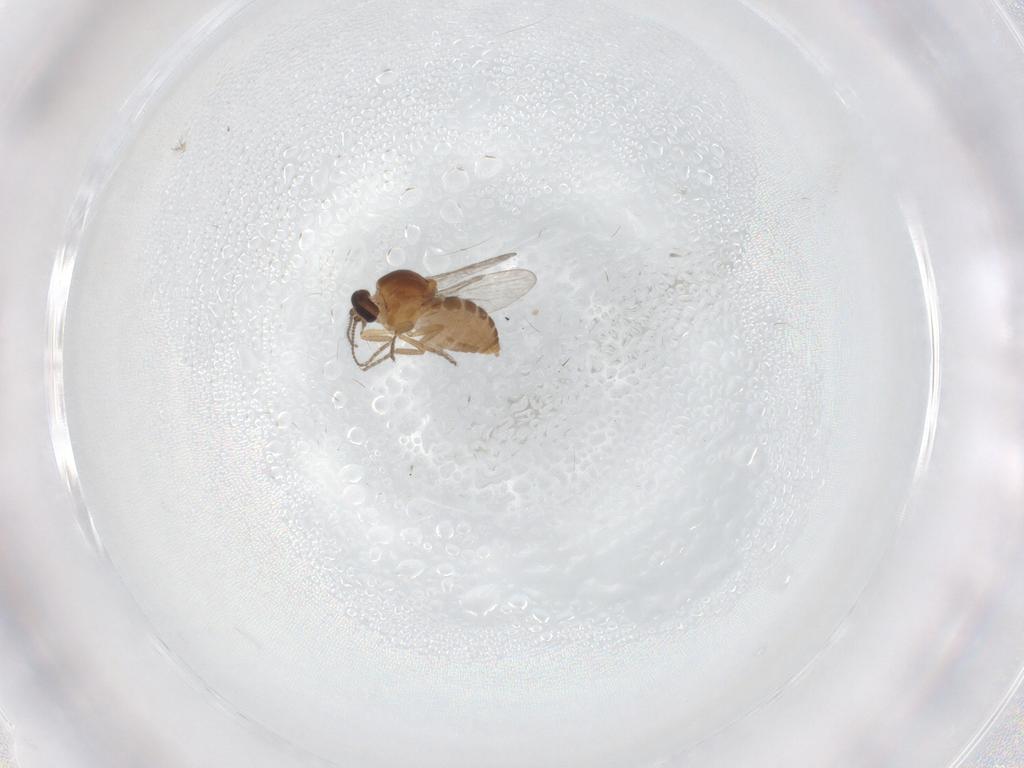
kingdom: Animalia
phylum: Arthropoda
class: Insecta
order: Diptera
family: Ceratopogonidae
